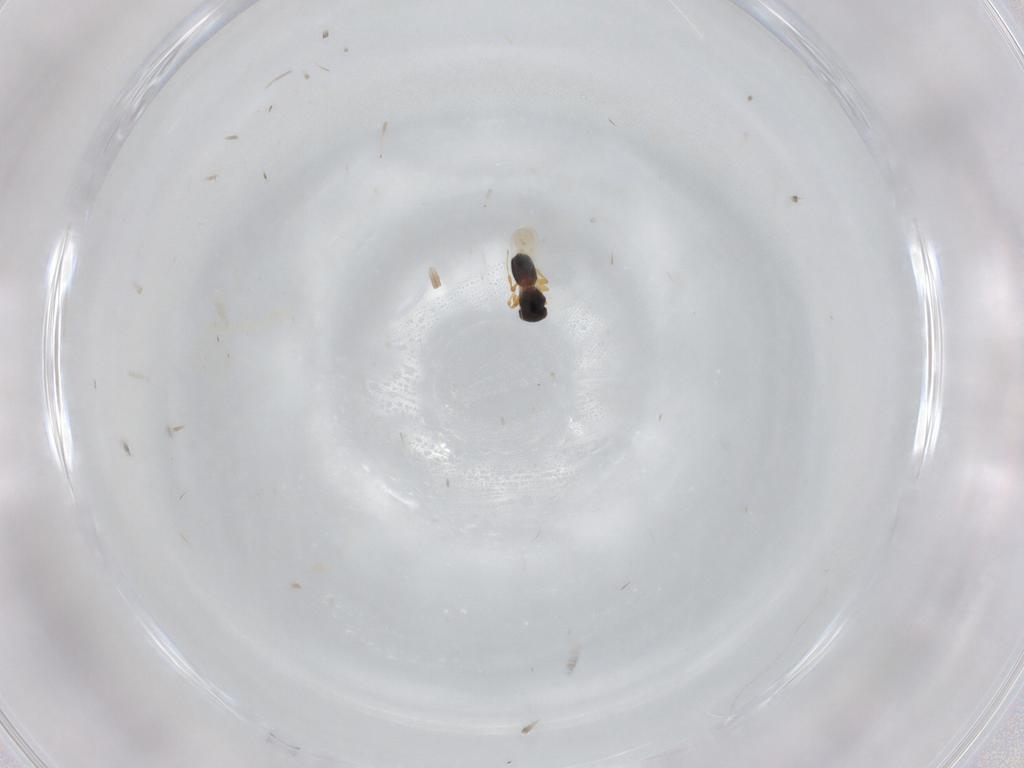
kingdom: Animalia
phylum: Arthropoda
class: Insecta
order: Hymenoptera
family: Platygastridae
